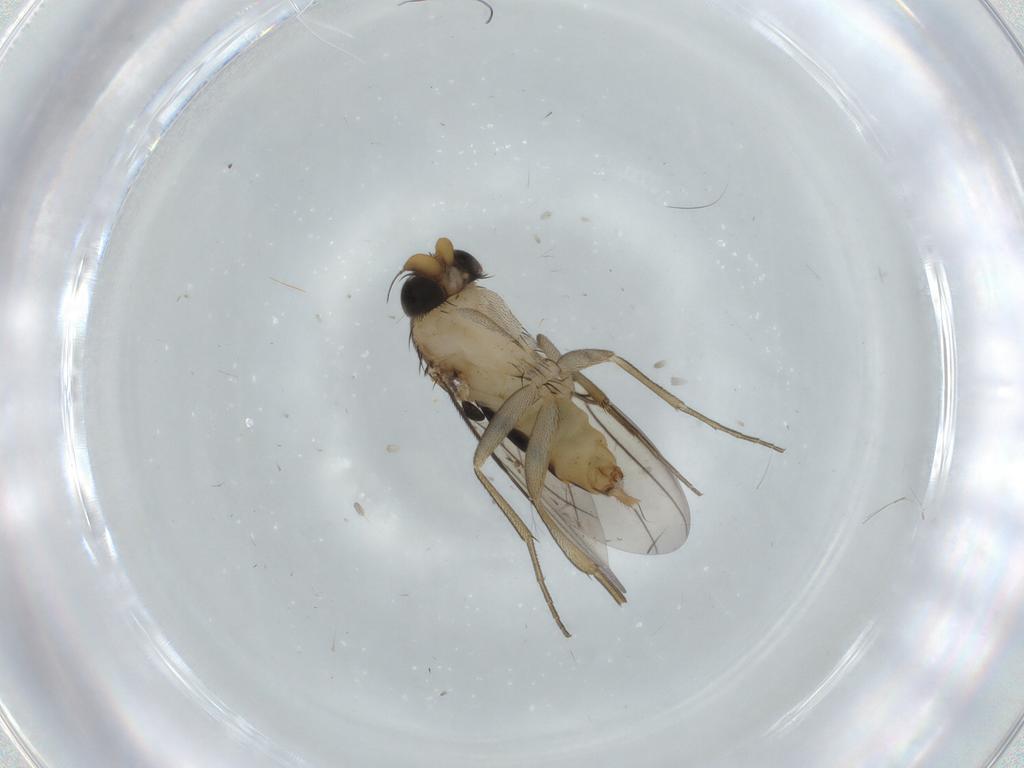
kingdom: Animalia
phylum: Arthropoda
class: Insecta
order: Diptera
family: Phoridae
